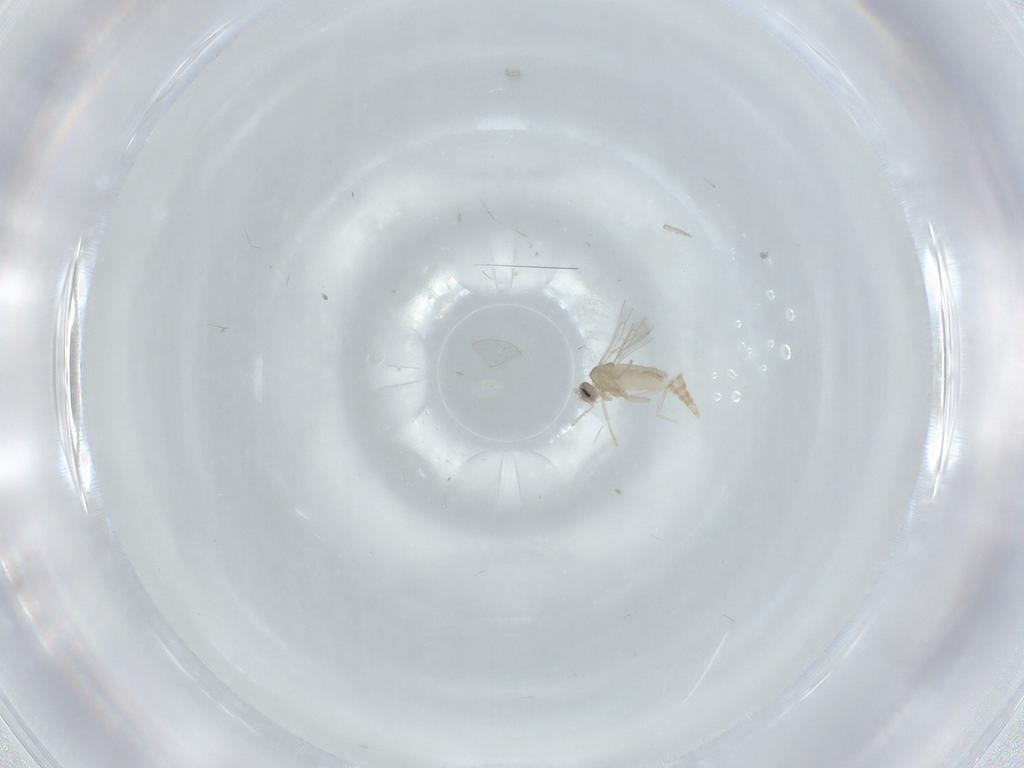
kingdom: Animalia
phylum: Arthropoda
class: Insecta
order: Diptera
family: Cecidomyiidae
